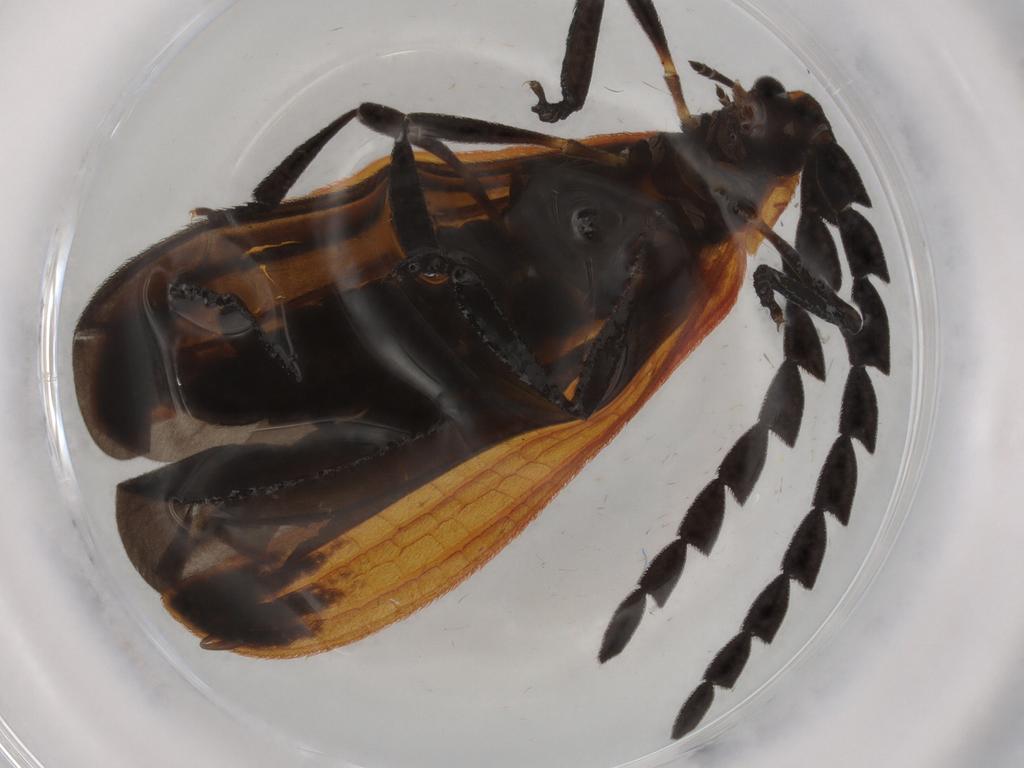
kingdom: Animalia
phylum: Arthropoda
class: Insecta
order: Coleoptera
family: Lycidae
